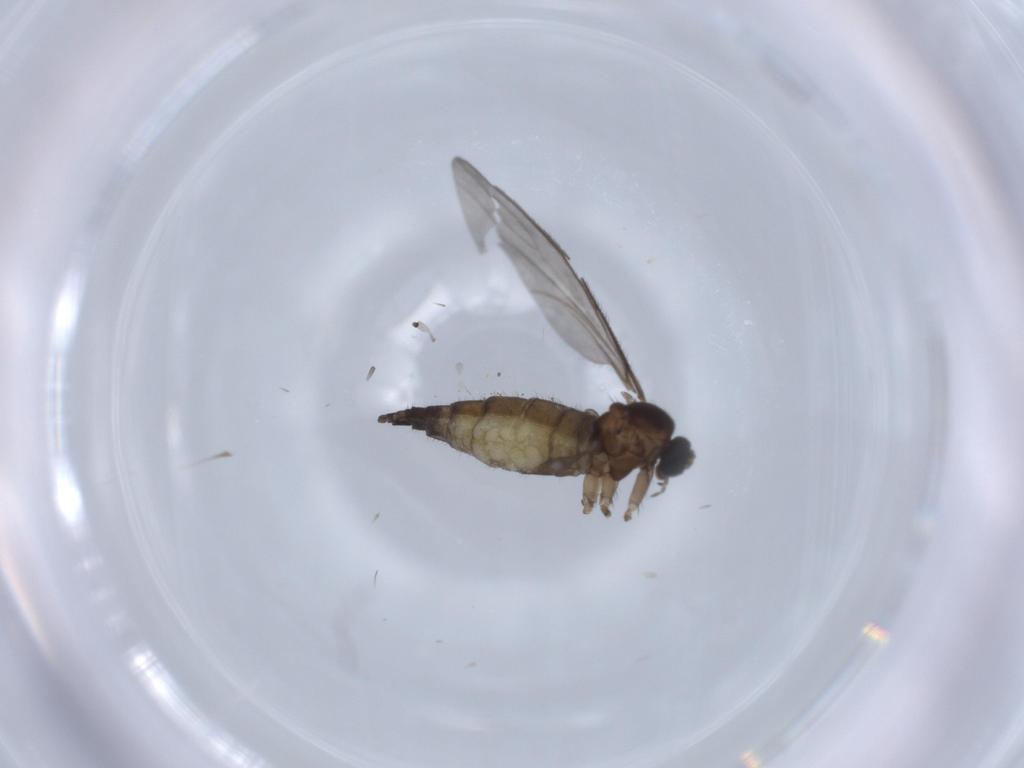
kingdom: Animalia
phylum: Arthropoda
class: Insecta
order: Diptera
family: Sciaridae
